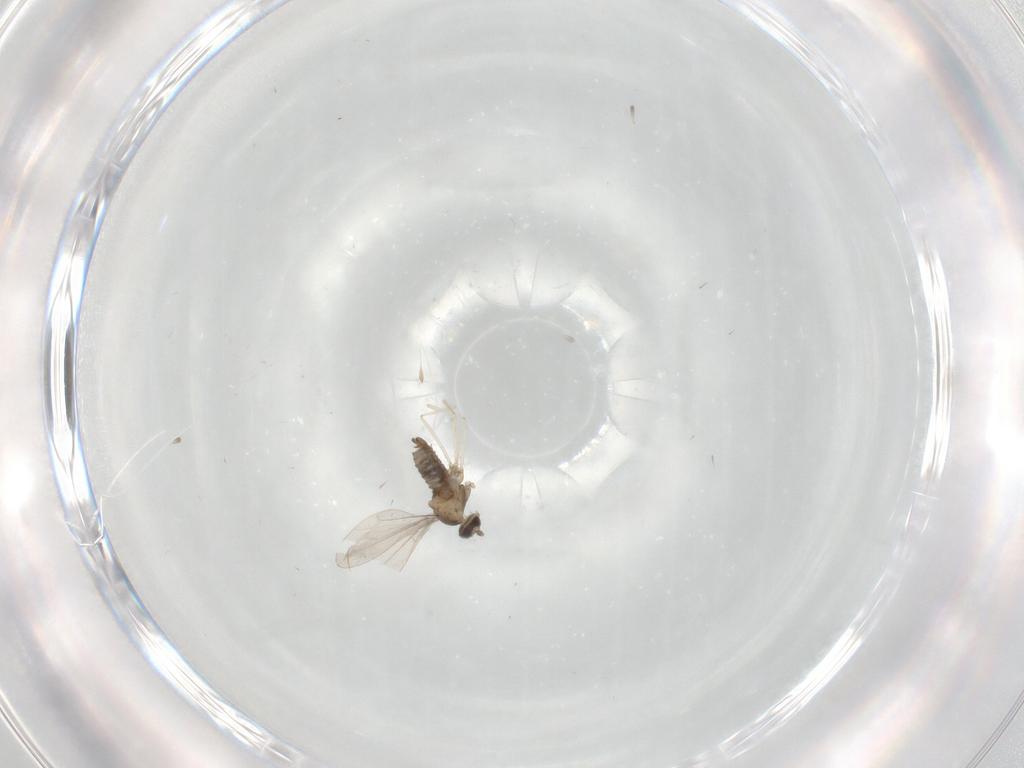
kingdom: Animalia
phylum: Arthropoda
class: Insecta
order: Diptera
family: Cecidomyiidae
